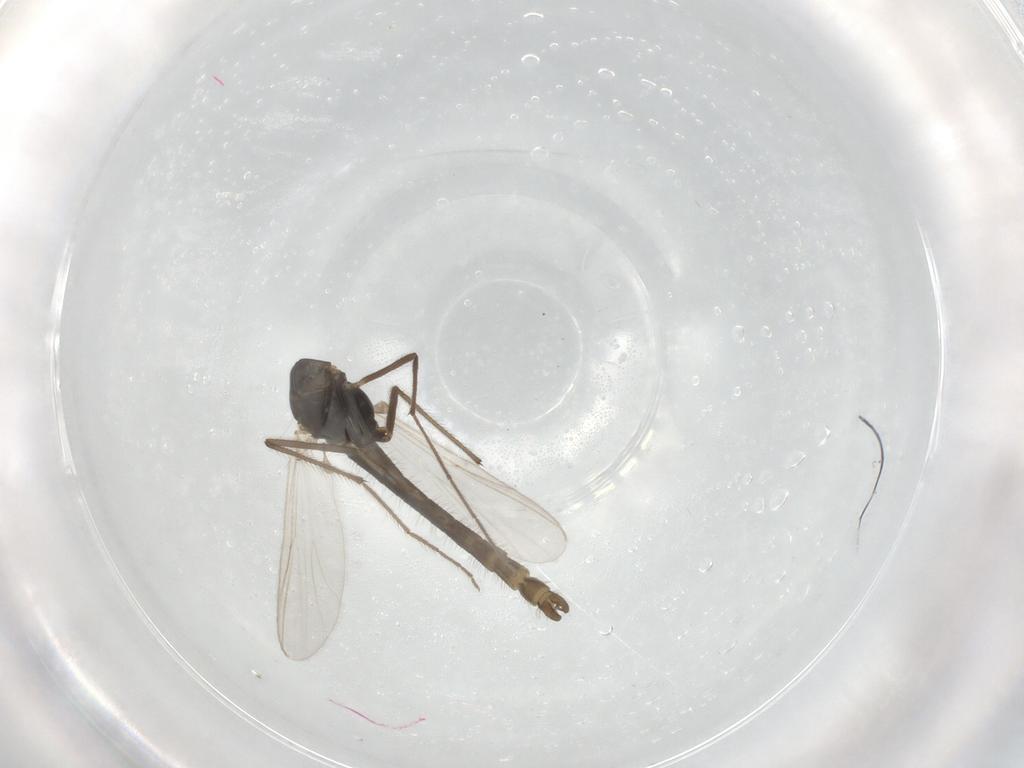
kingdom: Animalia
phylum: Arthropoda
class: Insecta
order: Diptera
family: Chironomidae
